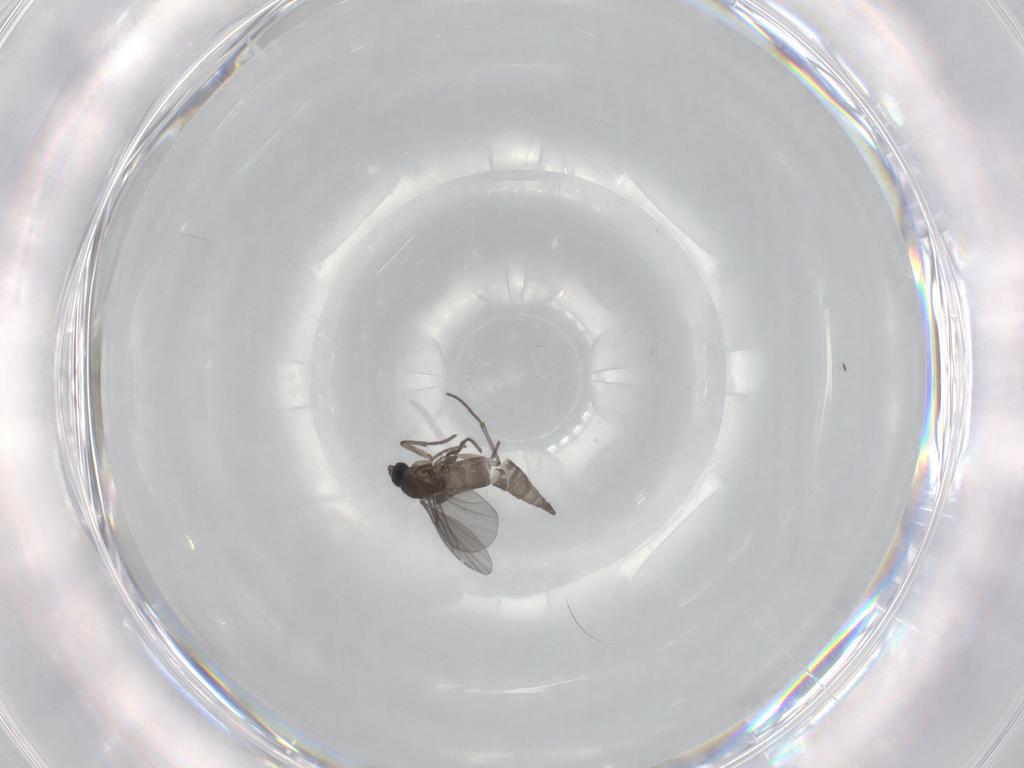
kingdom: Animalia
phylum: Arthropoda
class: Insecta
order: Diptera
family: Sciaridae
